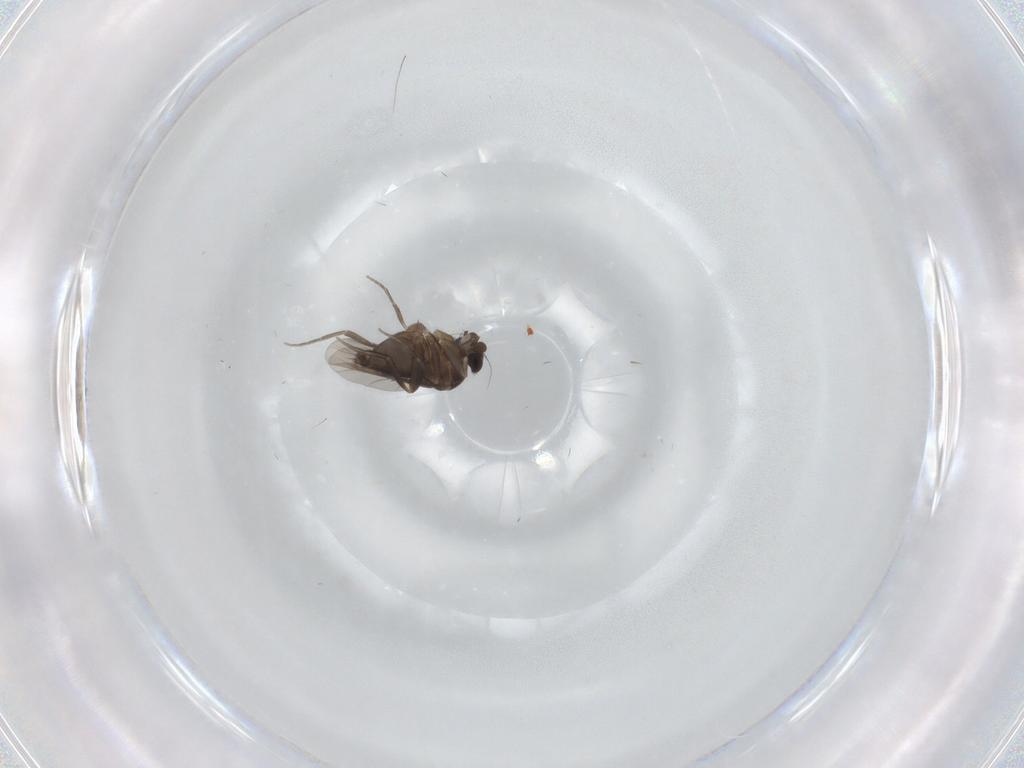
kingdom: Animalia
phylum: Arthropoda
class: Insecta
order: Diptera
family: Phoridae
